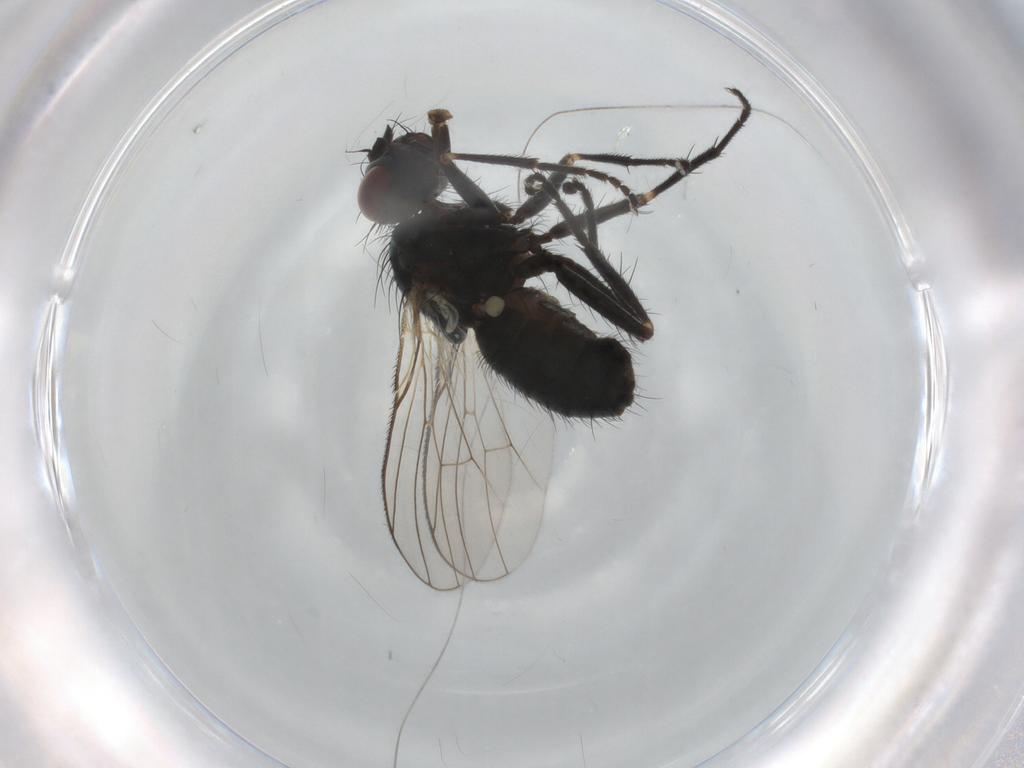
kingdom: Animalia
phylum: Arthropoda
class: Insecta
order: Diptera
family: Muscidae
